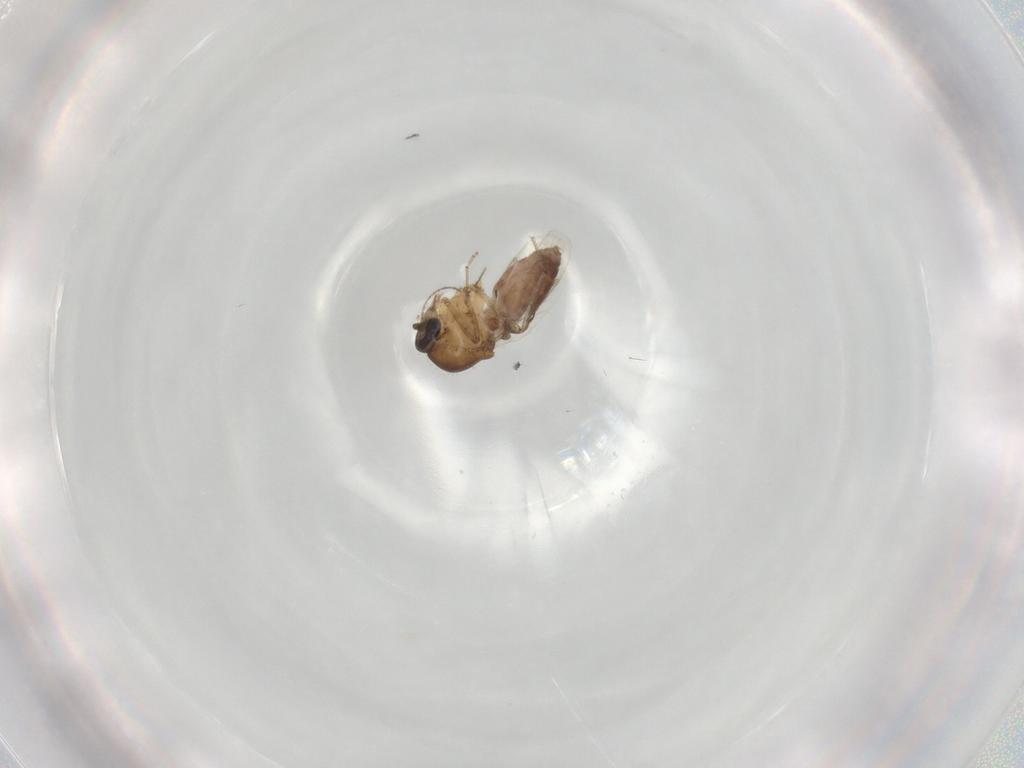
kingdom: Animalia
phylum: Arthropoda
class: Insecta
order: Diptera
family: Ceratopogonidae
